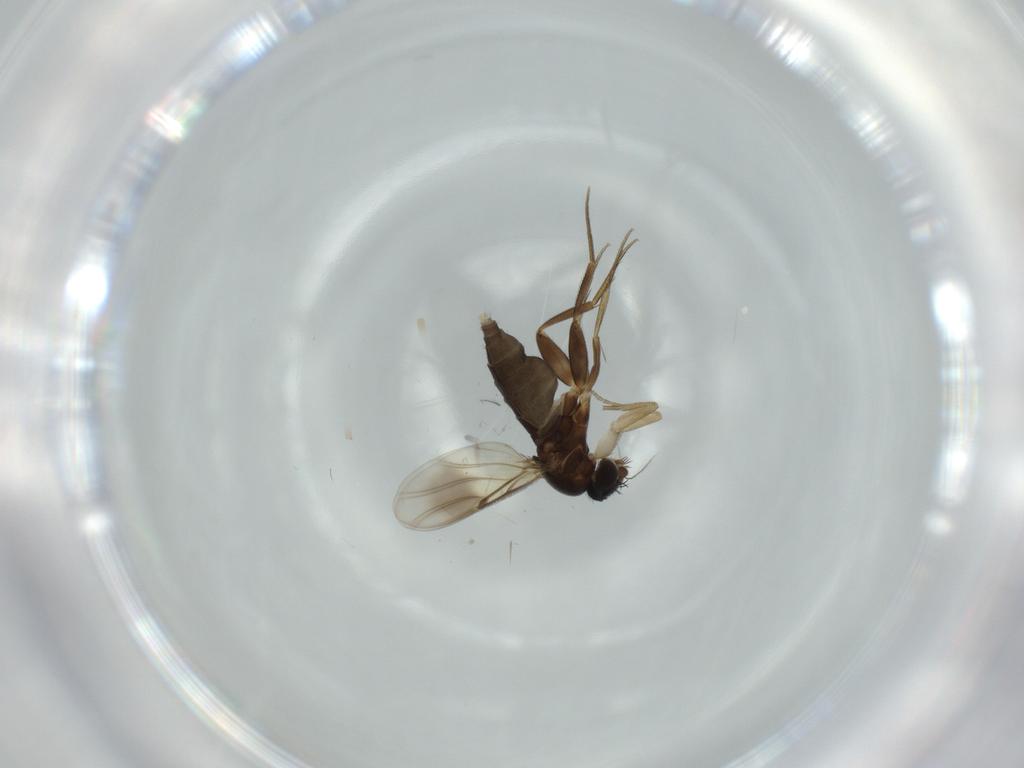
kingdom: Animalia
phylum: Arthropoda
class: Insecta
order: Diptera
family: Phoridae
